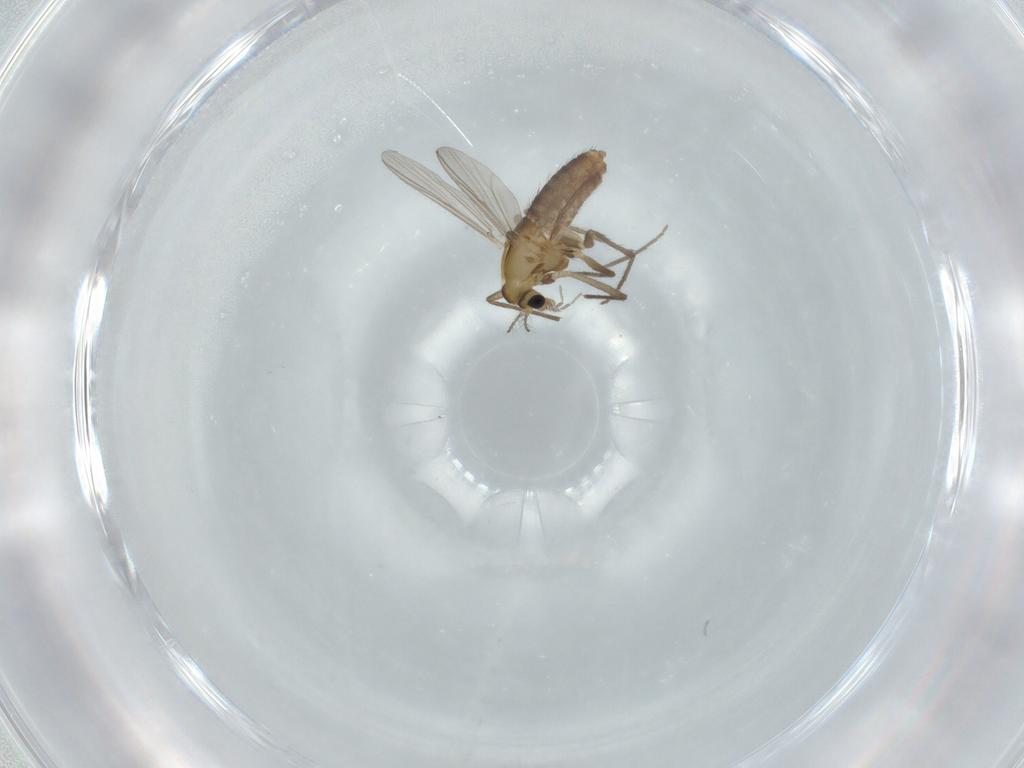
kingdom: Animalia
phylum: Arthropoda
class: Insecta
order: Diptera
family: Chironomidae
